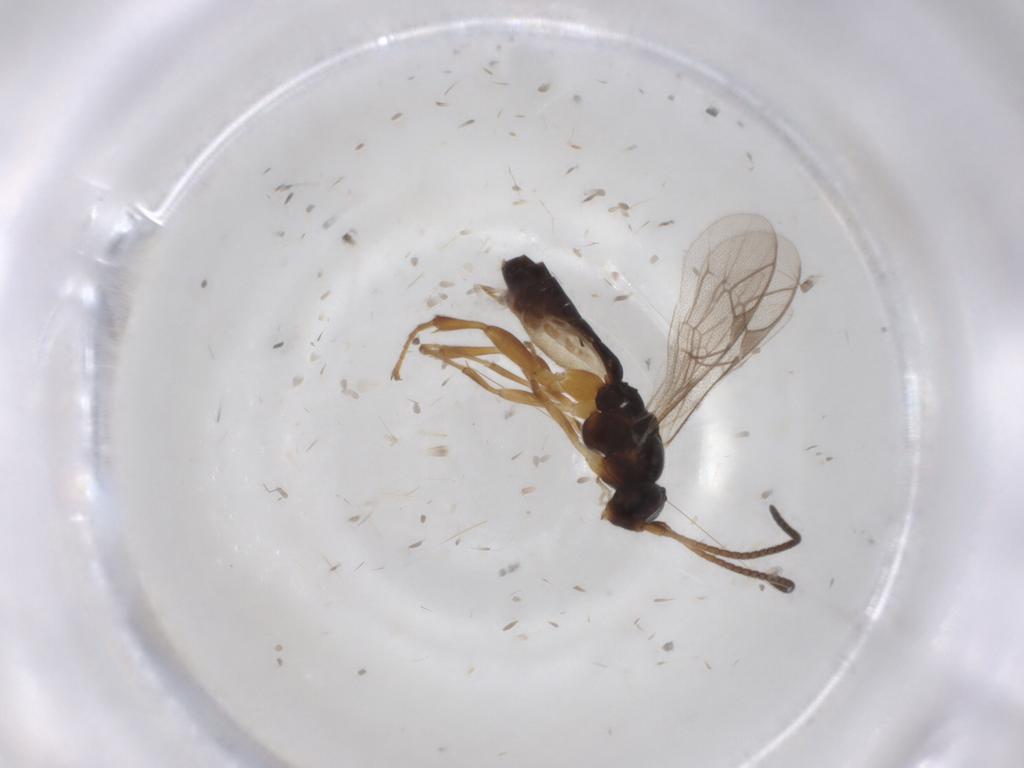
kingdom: Animalia
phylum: Arthropoda
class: Insecta
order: Hymenoptera
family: Ichneumonidae
